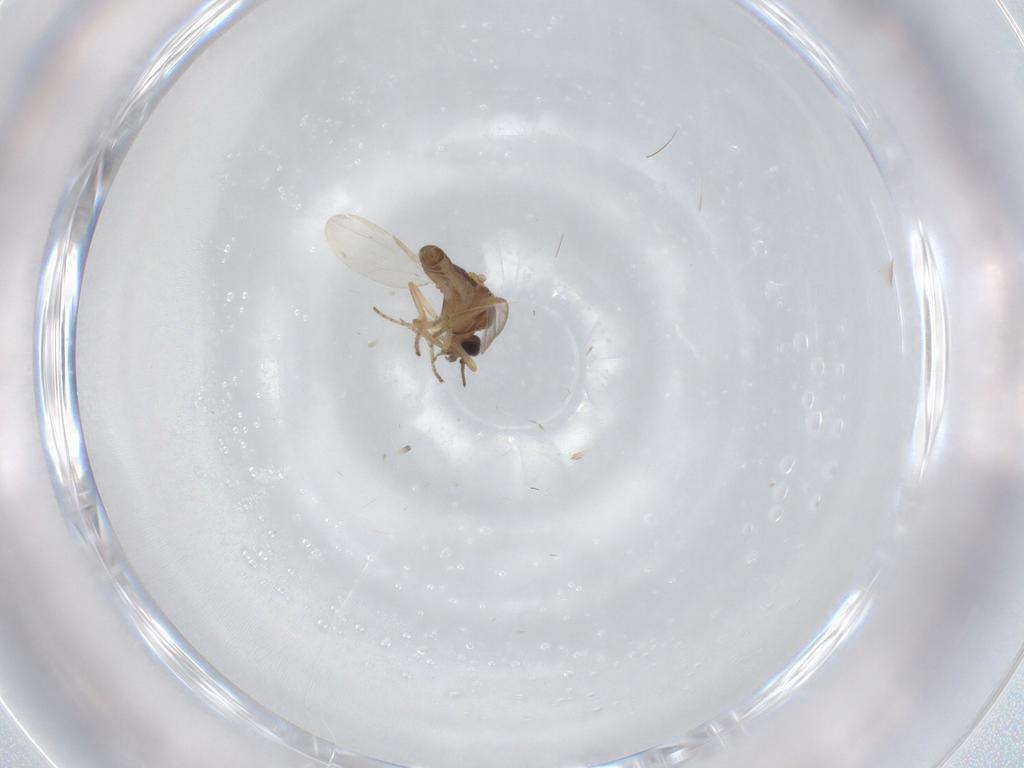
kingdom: Animalia
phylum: Arthropoda
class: Insecta
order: Diptera
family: Ceratopogonidae
